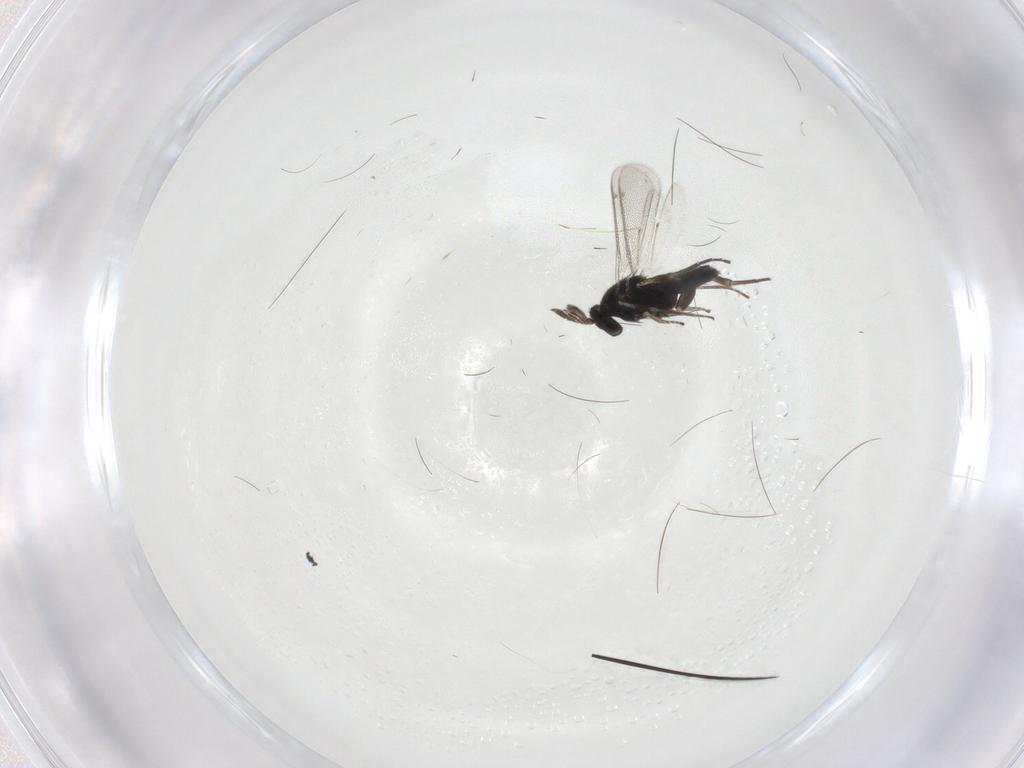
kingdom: Animalia
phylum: Arthropoda
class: Insecta
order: Hymenoptera
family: Eulophidae
